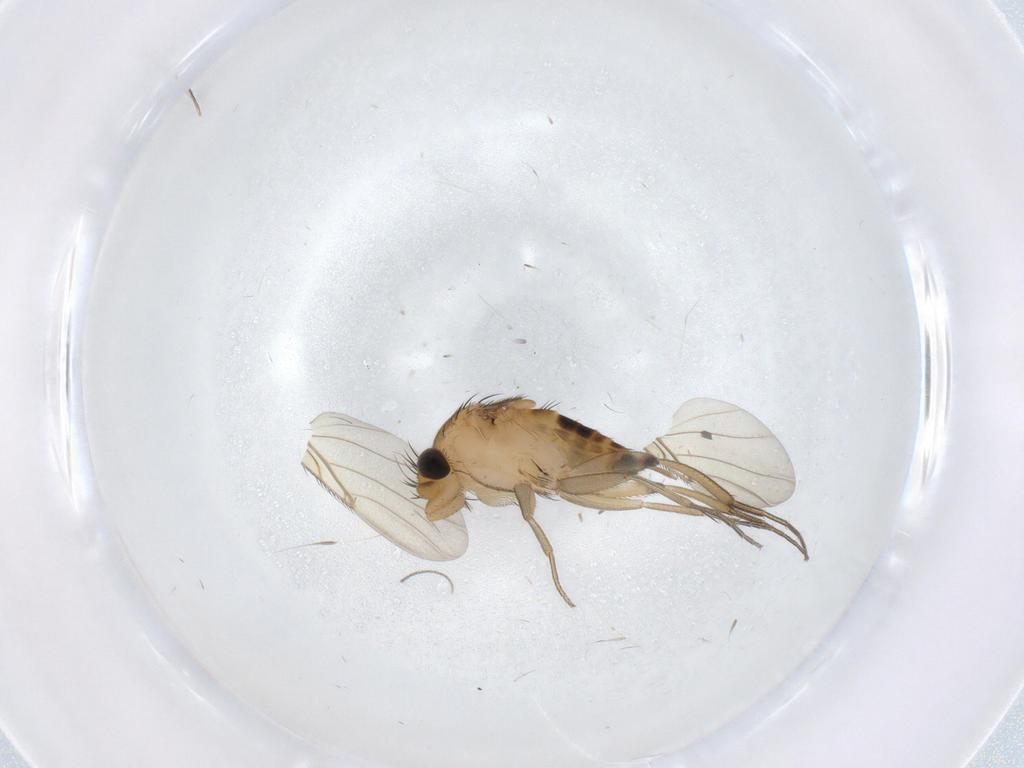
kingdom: Animalia
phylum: Arthropoda
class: Insecta
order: Diptera
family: Phoridae
